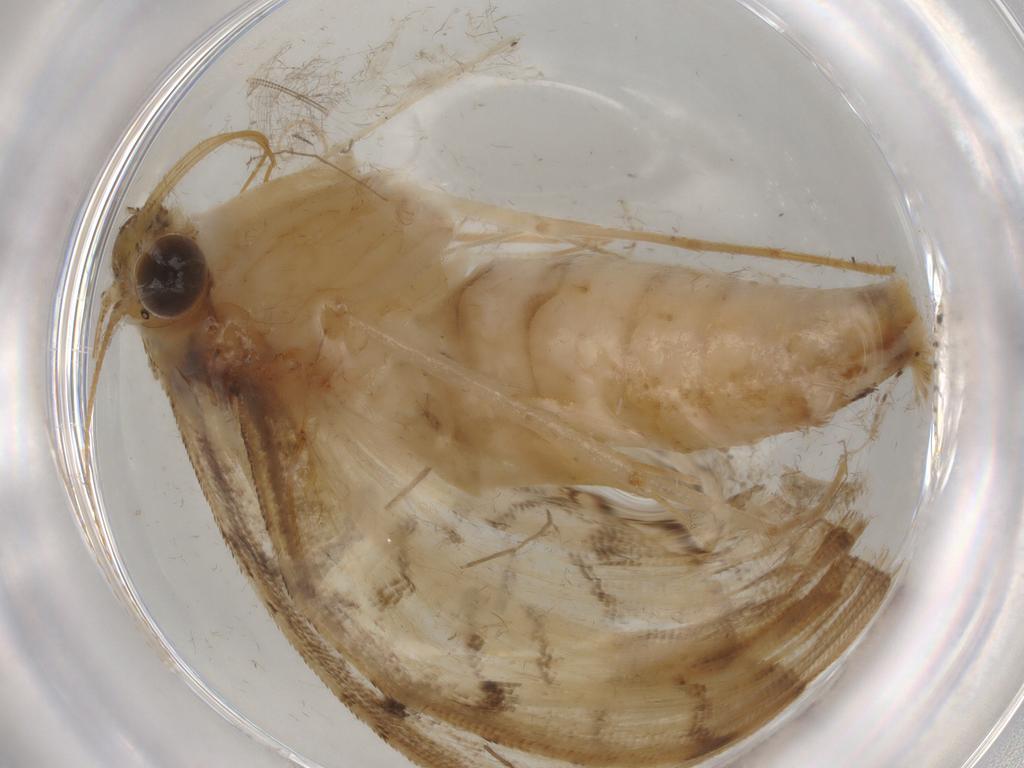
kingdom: Animalia
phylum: Arthropoda
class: Insecta
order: Lepidoptera
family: Crambidae
